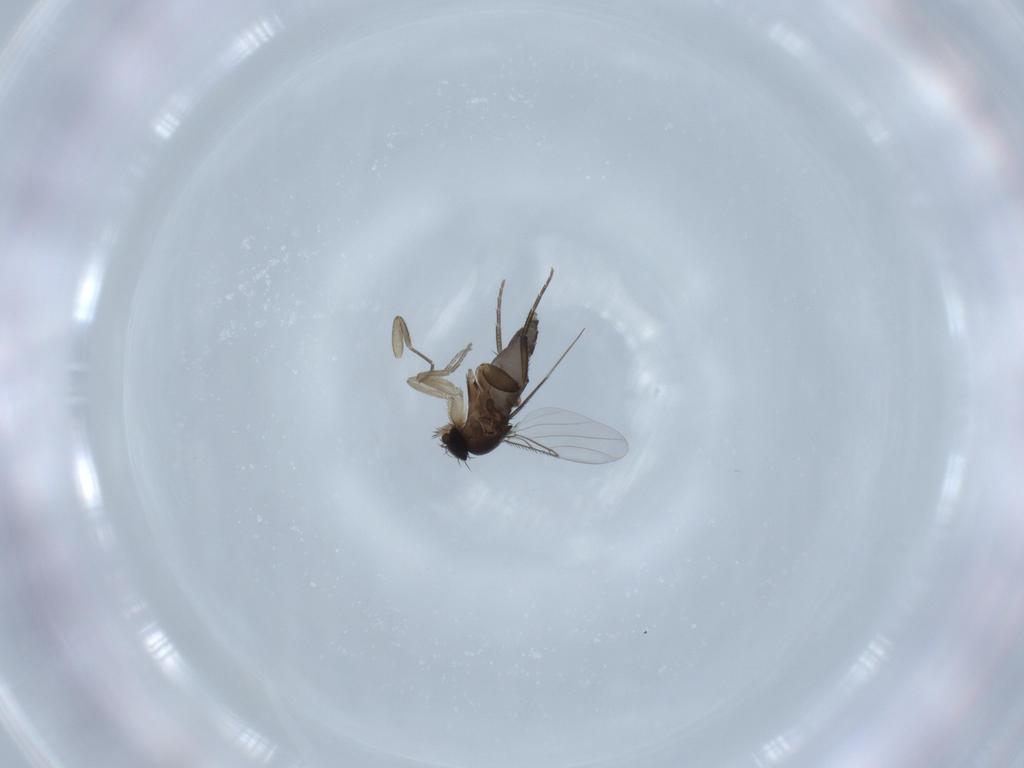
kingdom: Animalia
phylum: Arthropoda
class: Insecta
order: Diptera
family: Phoridae
